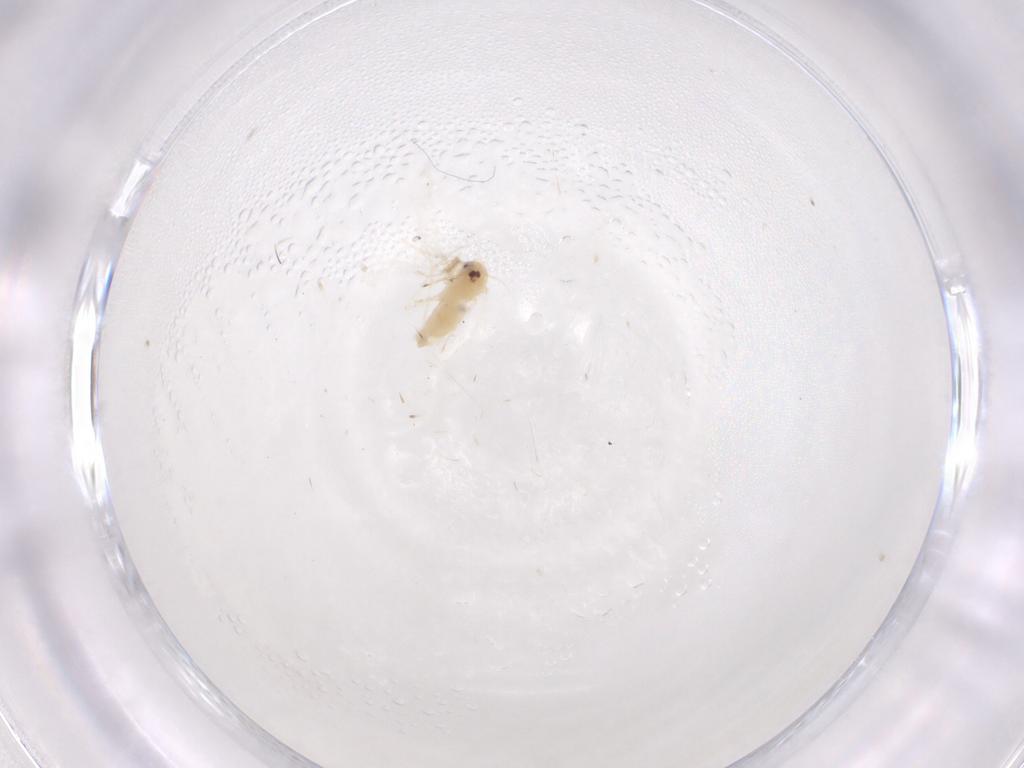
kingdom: Animalia
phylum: Arthropoda
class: Insecta
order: Hemiptera
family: Aleyrodidae
